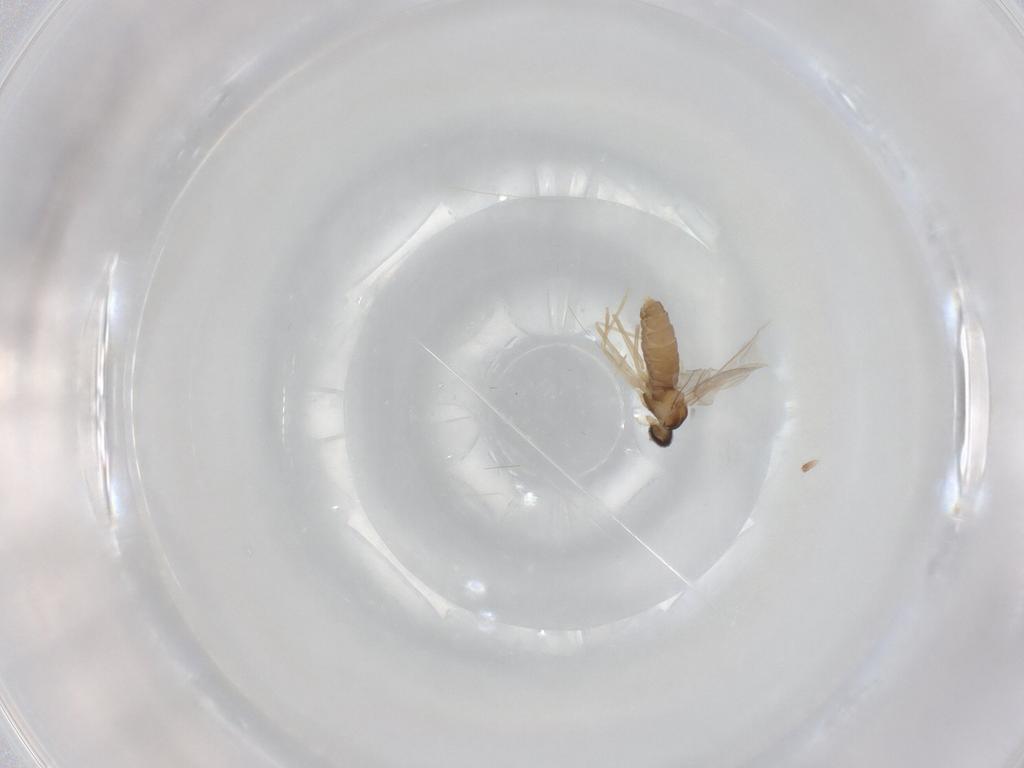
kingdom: Animalia
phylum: Arthropoda
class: Insecta
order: Diptera
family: Cecidomyiidae
